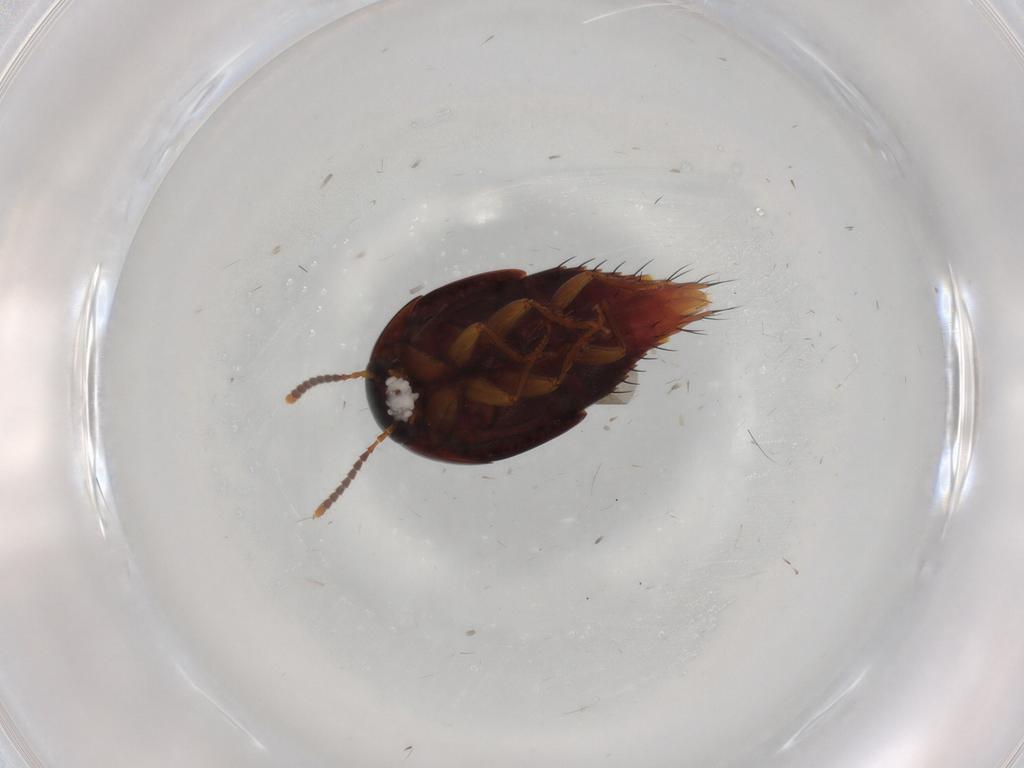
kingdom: Animalia
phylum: Arthropoda
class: Insecta
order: Coleoptera
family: Staphylinidae
